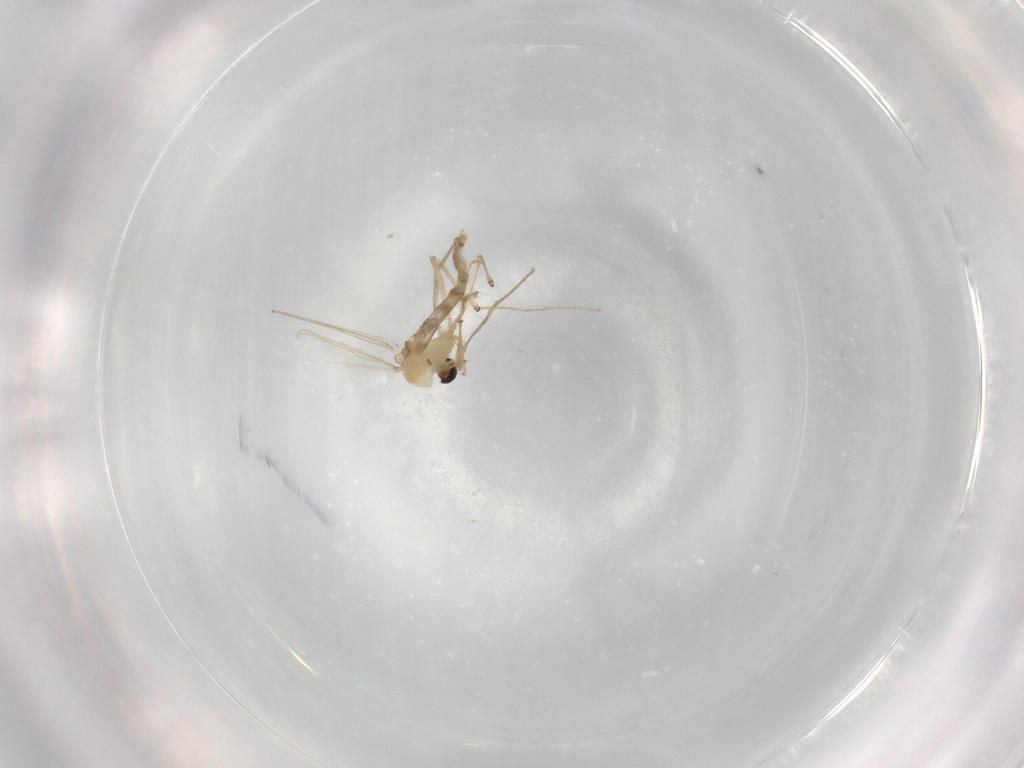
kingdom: Animalia
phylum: Arthropoda
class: Insecta
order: Diptera
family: Chironomidae
